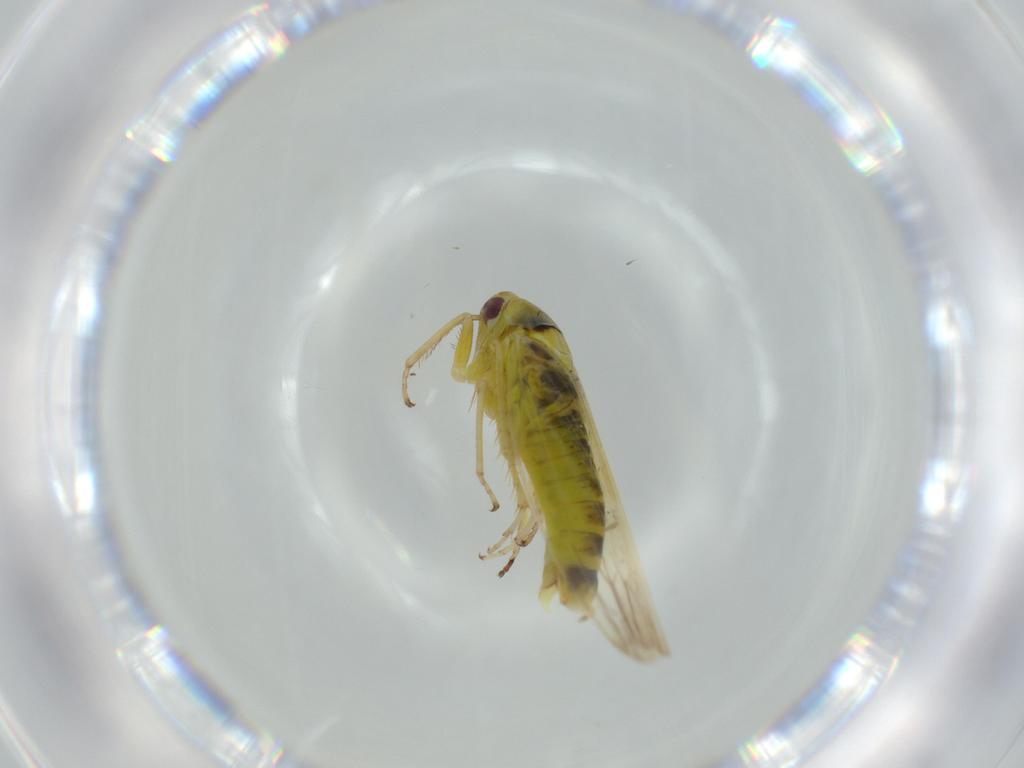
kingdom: Animalia
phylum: Arthropoda
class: Insecta
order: Hemiptera
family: Cicadellidae
